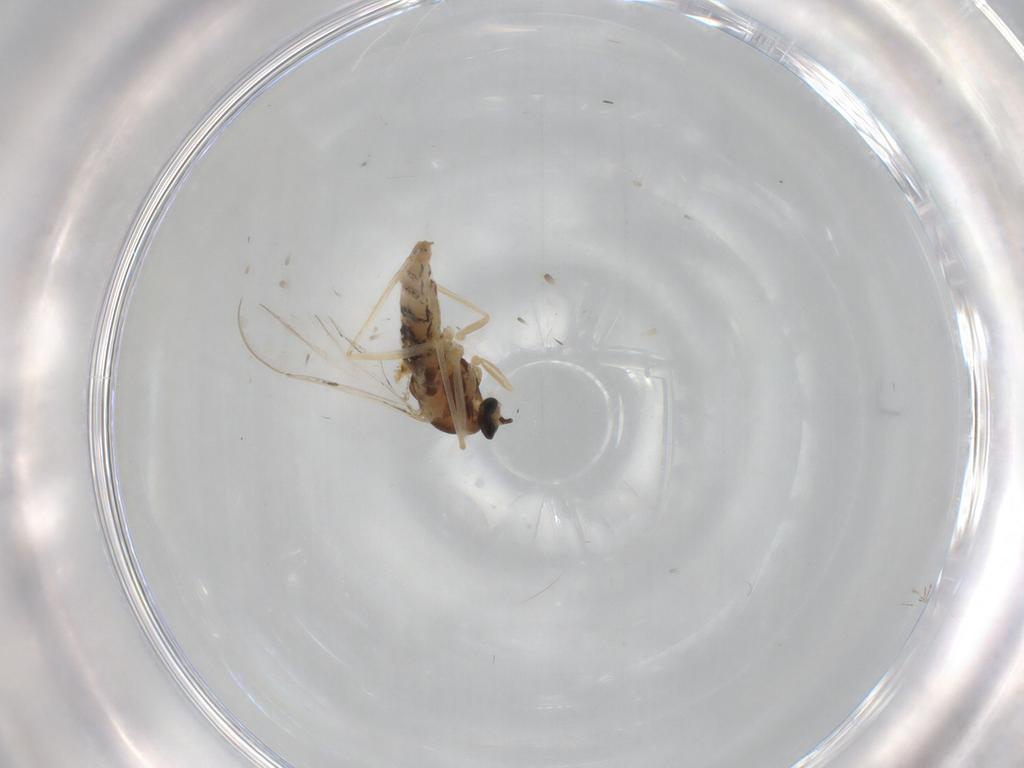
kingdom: Animalia
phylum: Arthropoda
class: Insecta
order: Diptera
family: Cecidomyiidae
